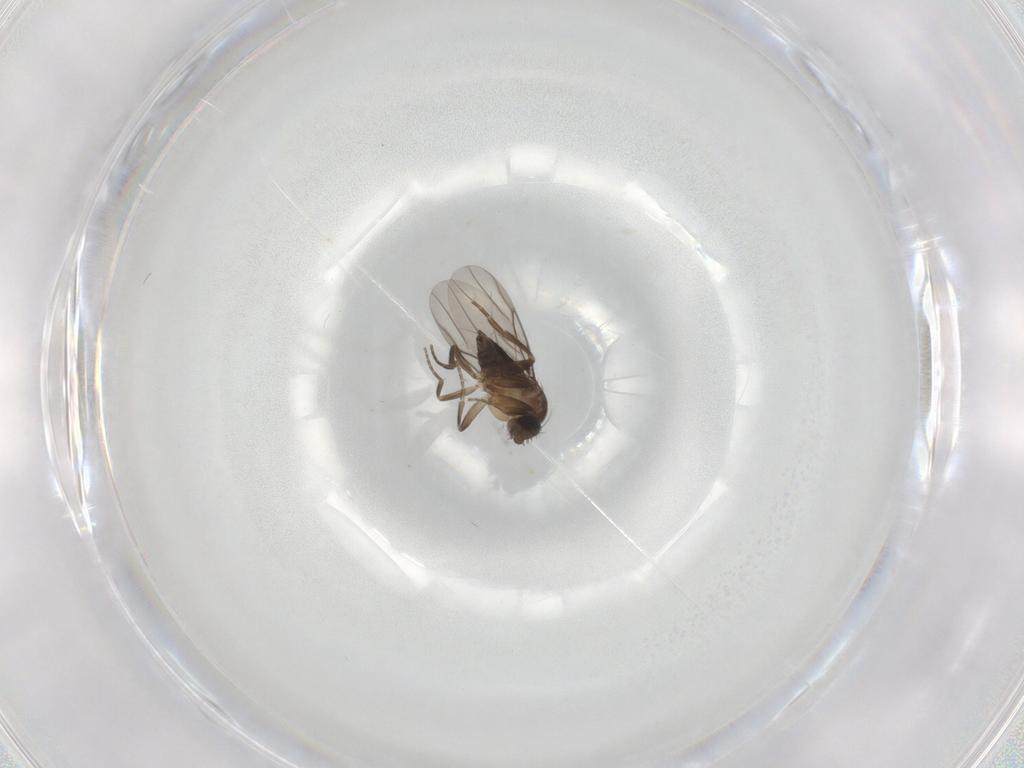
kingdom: Animalia
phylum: Arthropoda
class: Insecta
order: Diptera
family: Phoridae
